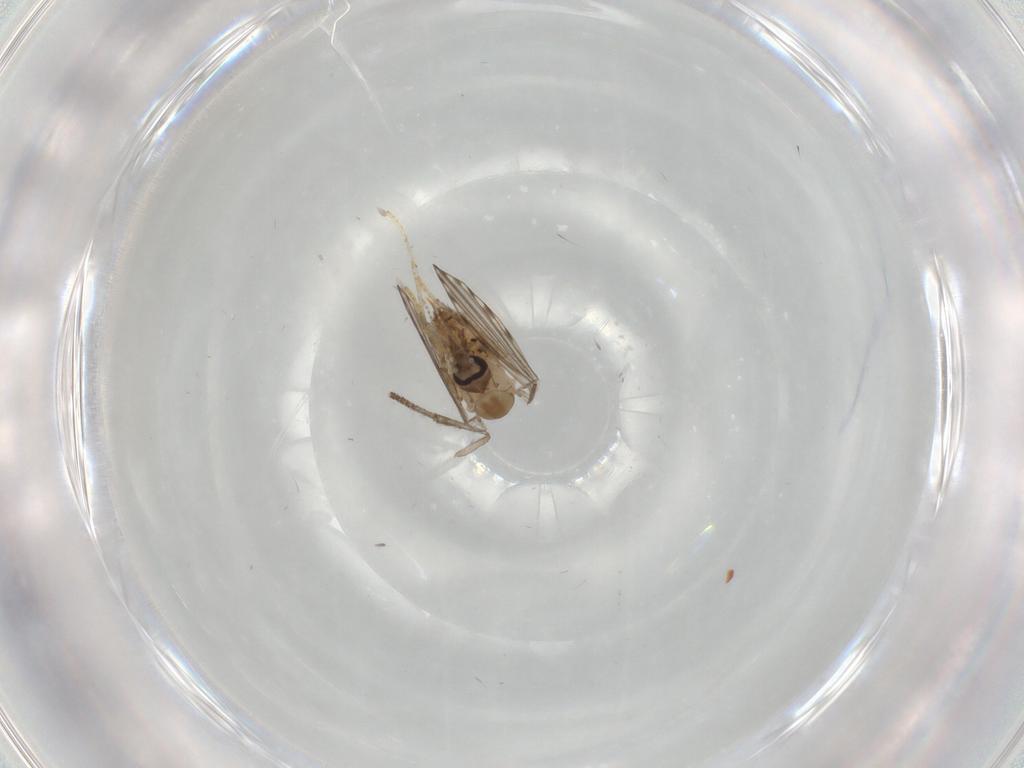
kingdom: Animalia
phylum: Arthropoda
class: Insecta
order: Diptera
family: Psychodidae
